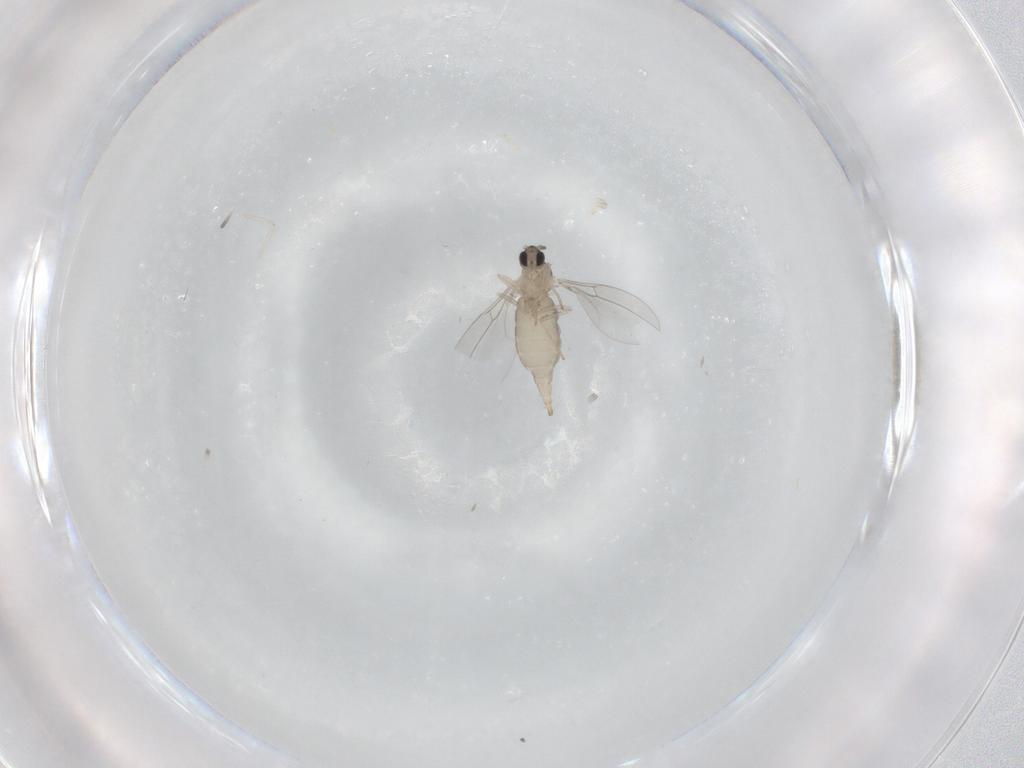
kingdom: Animalia
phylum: Arthropoda
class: Insecta
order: Diptera
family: Cecidomyiidae
